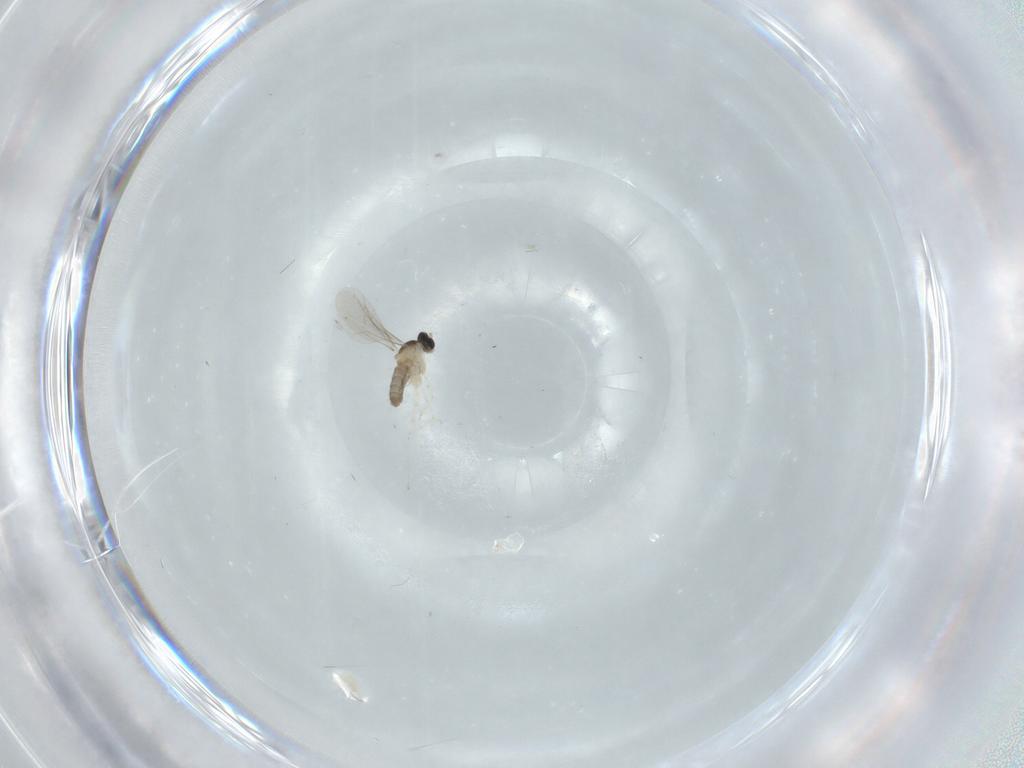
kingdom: Animalia
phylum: Arthropoda
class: Insecta
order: Diptera
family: Cecidomyiidae
